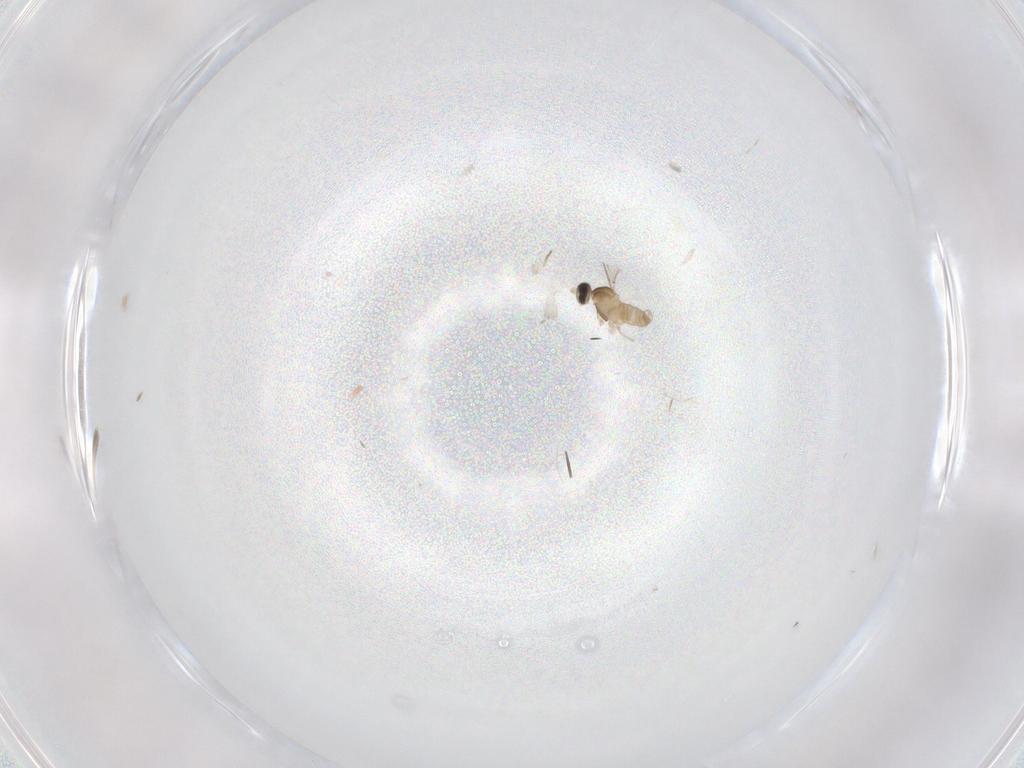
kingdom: Animalia
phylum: Arthropoda
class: Insecta
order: Diptera
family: Cecidomyiidae
